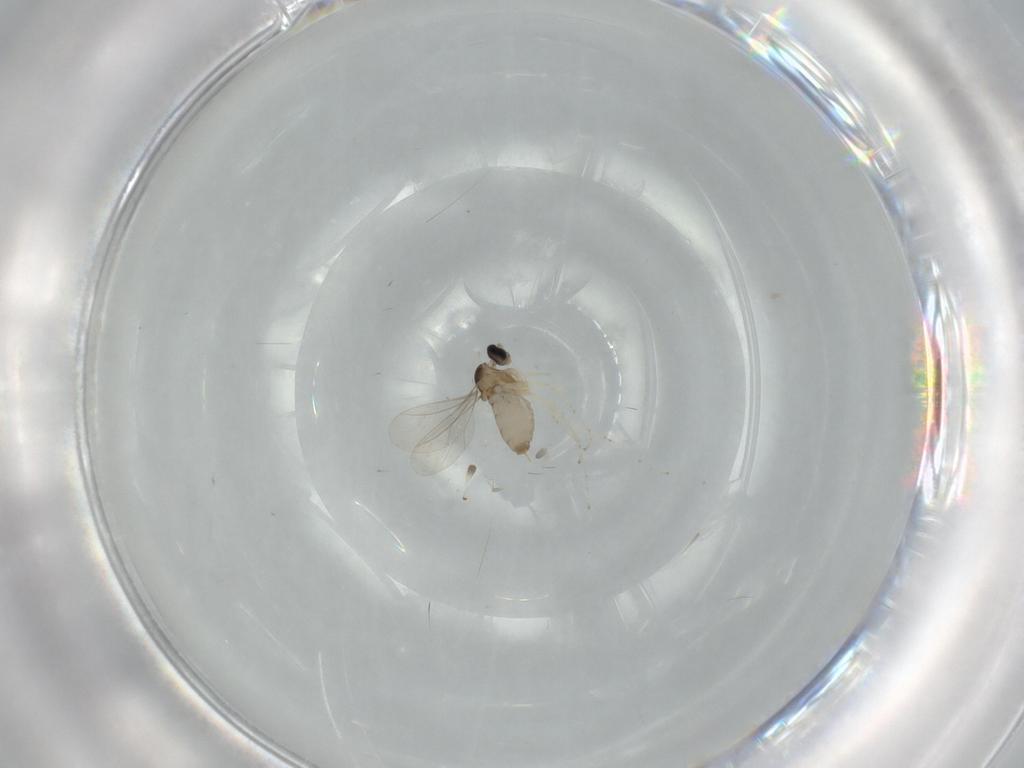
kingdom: Animalia
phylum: Arthropoda
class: Insecta
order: Diptera
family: Cecidomyiidae
